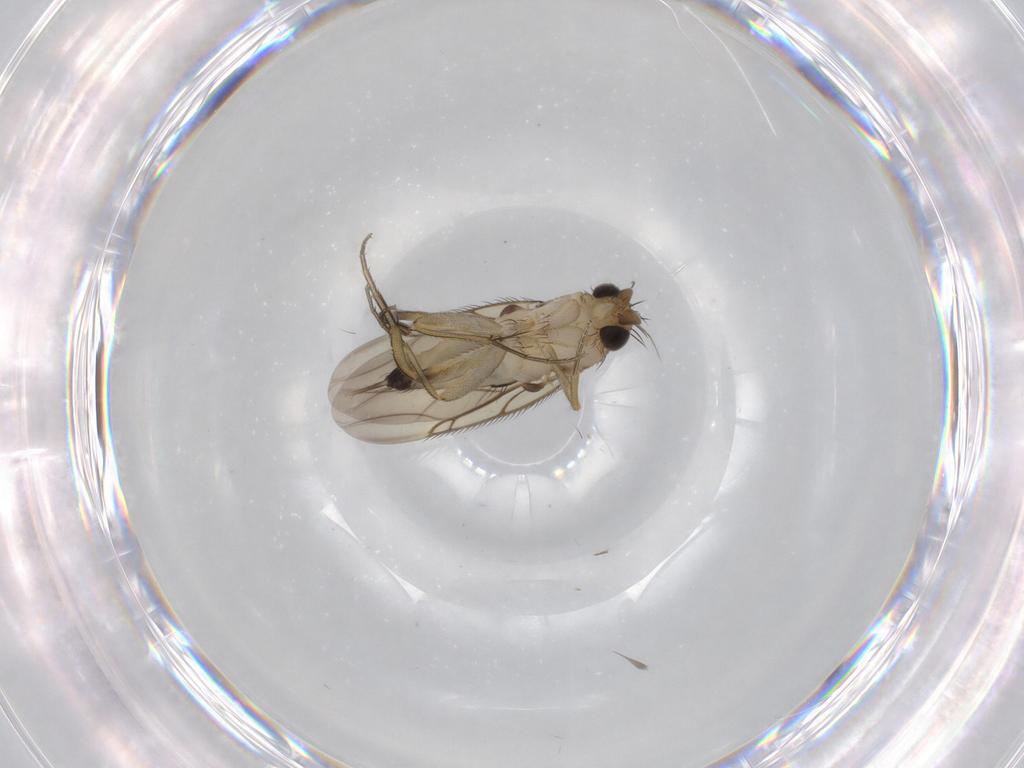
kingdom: Animalia
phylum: Arthropoda
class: Insecta
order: Diptera
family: Phoridae
